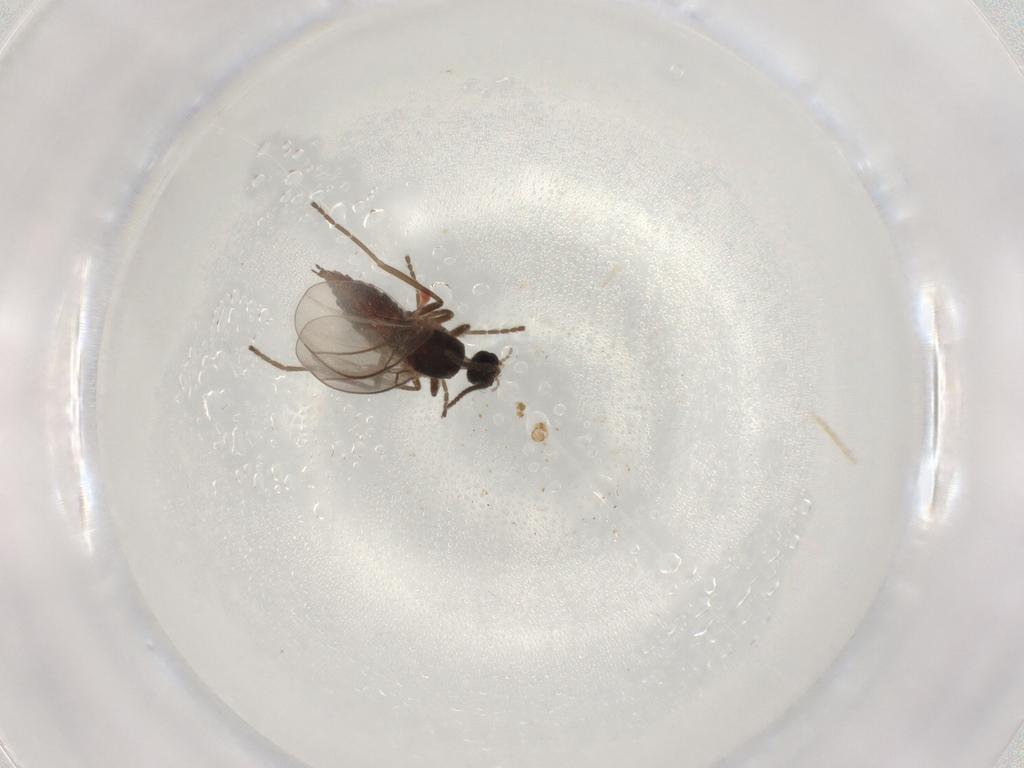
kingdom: Animalia
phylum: Arthropoda
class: Insecta
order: Diptera
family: Cecidomyiidae
